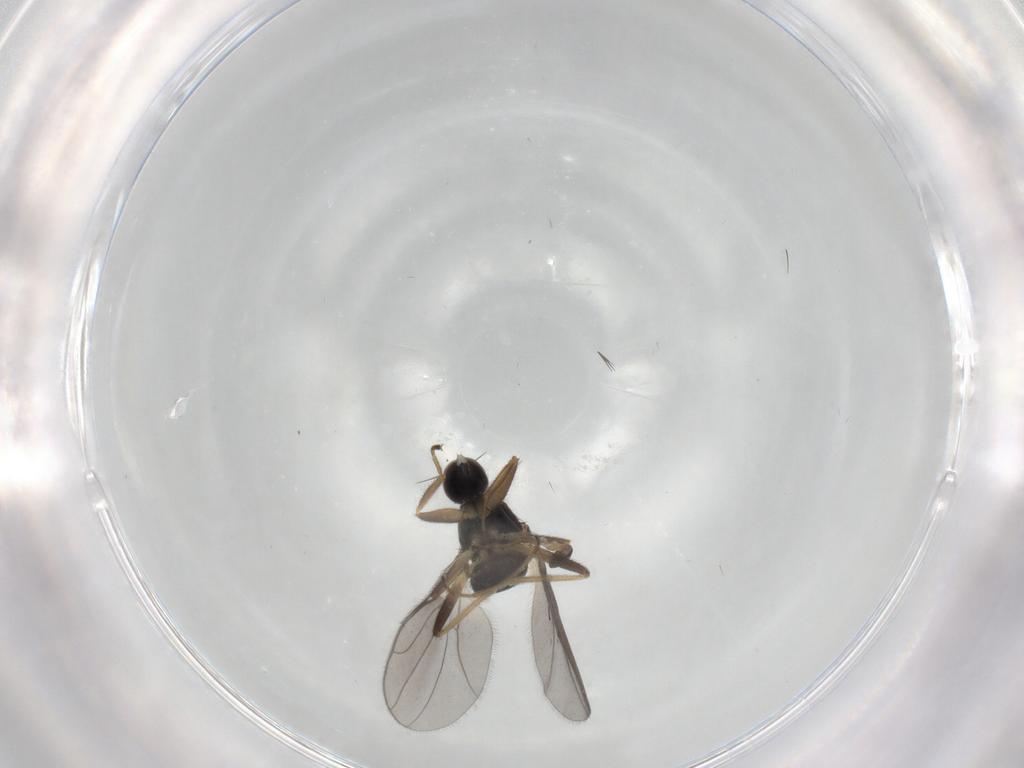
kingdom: Animalia
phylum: Arthropoda
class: Insecta
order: Diptera
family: Hybotidae
